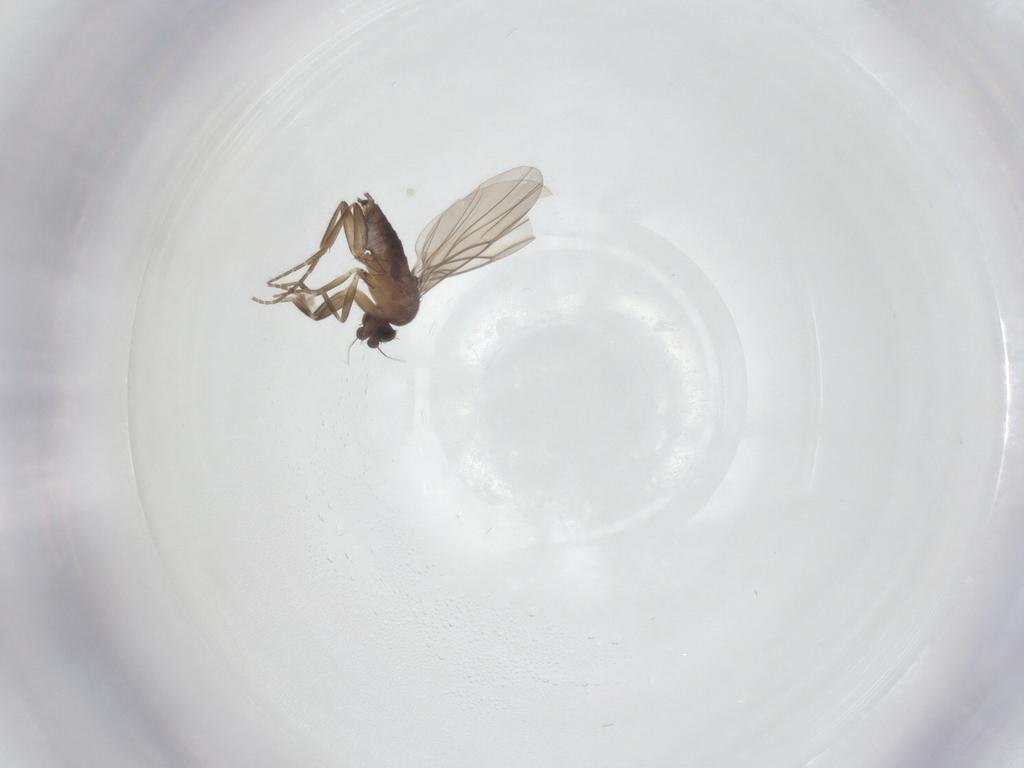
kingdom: Animalia
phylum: Arthropoda
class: Insecta
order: Diptera
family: Phoridae
